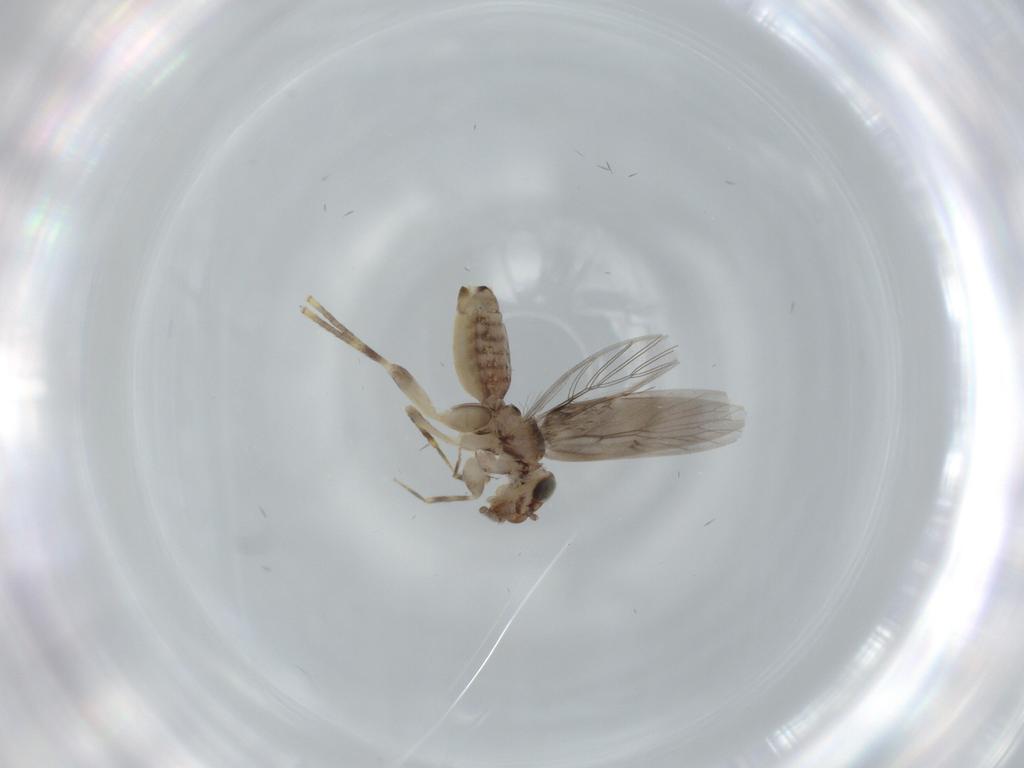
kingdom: Animalia
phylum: Arthropoda
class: Insecta
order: Psocodea
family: Lepidopsocidae
